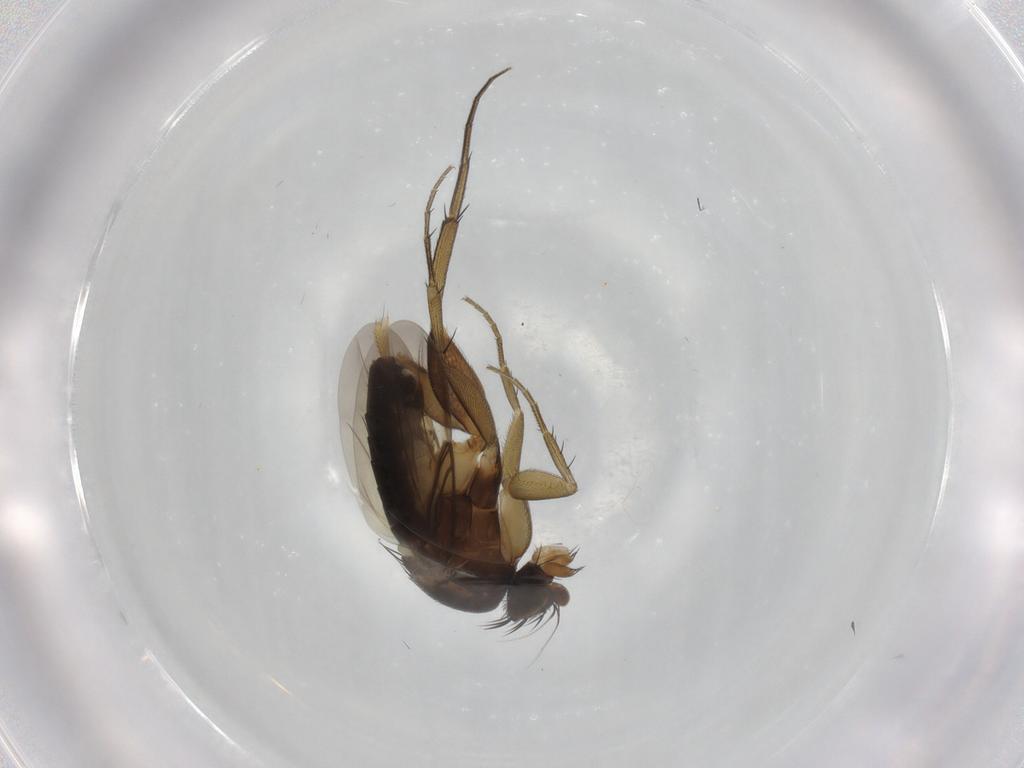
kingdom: Animalia
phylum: Arthropoda
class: Insecta
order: Diptera
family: Phoridae
